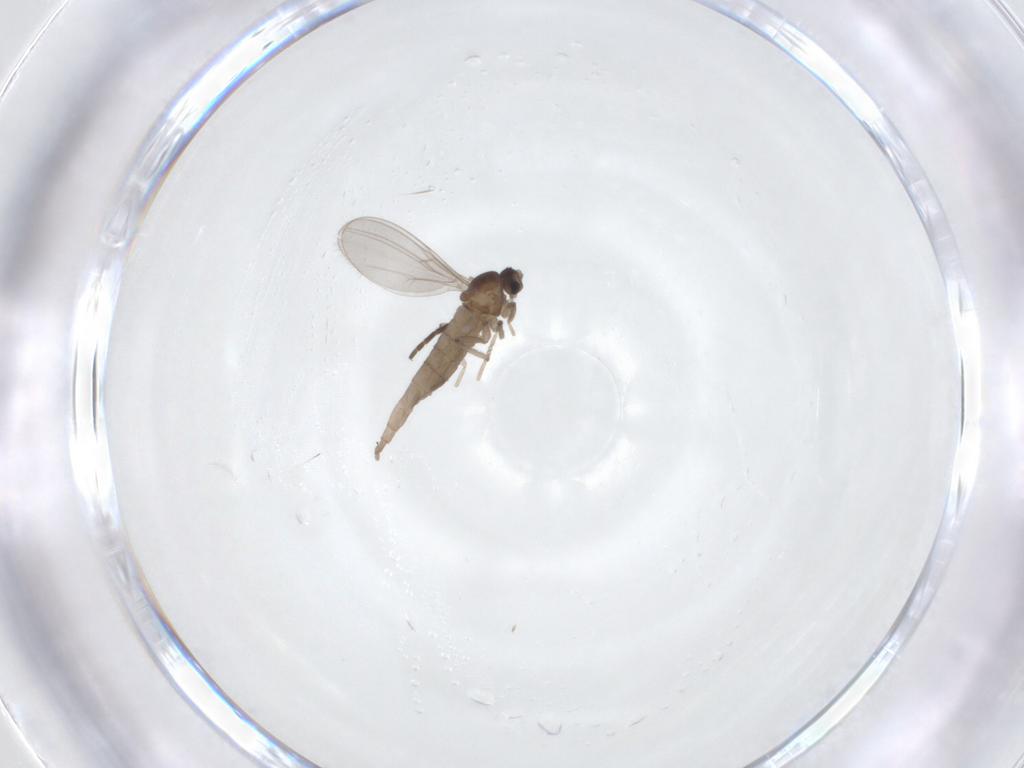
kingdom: Animalia
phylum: Arthropoda
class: Insecta
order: Diptera
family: Cecidomyiidae
